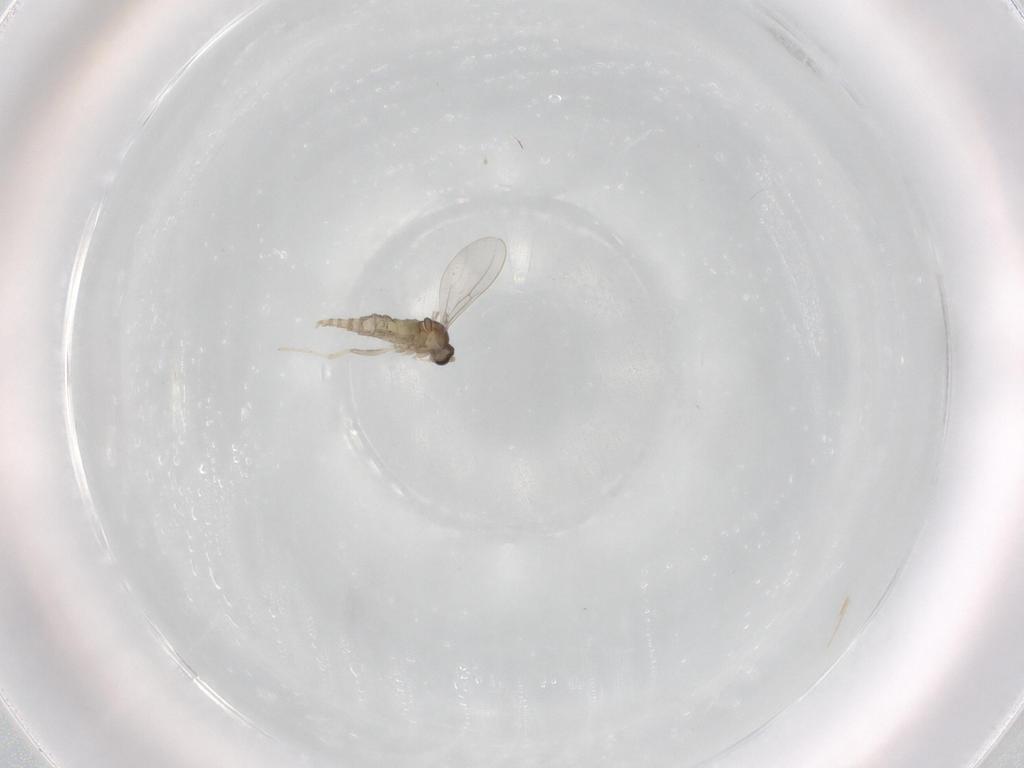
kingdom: Animalia
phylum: Arthropoda
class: Insecta
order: Diptera
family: Cecidomyiidae
